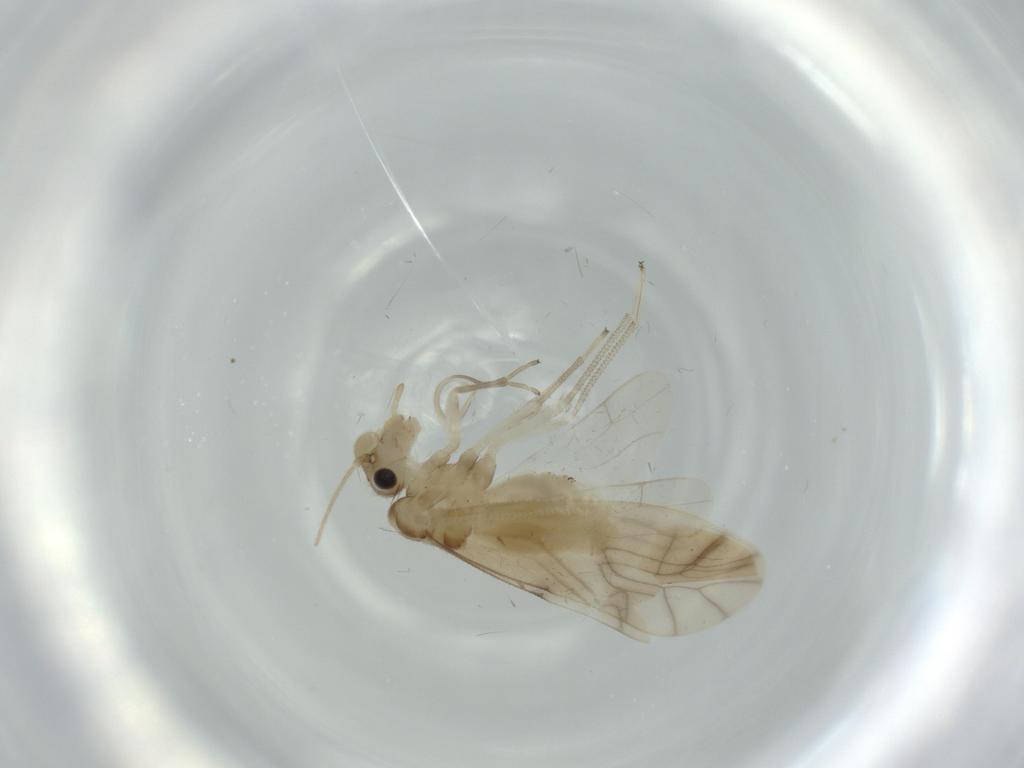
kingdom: Animalia
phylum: Arthropoda
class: Insecta
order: Psocodea
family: Caeciliusidae
